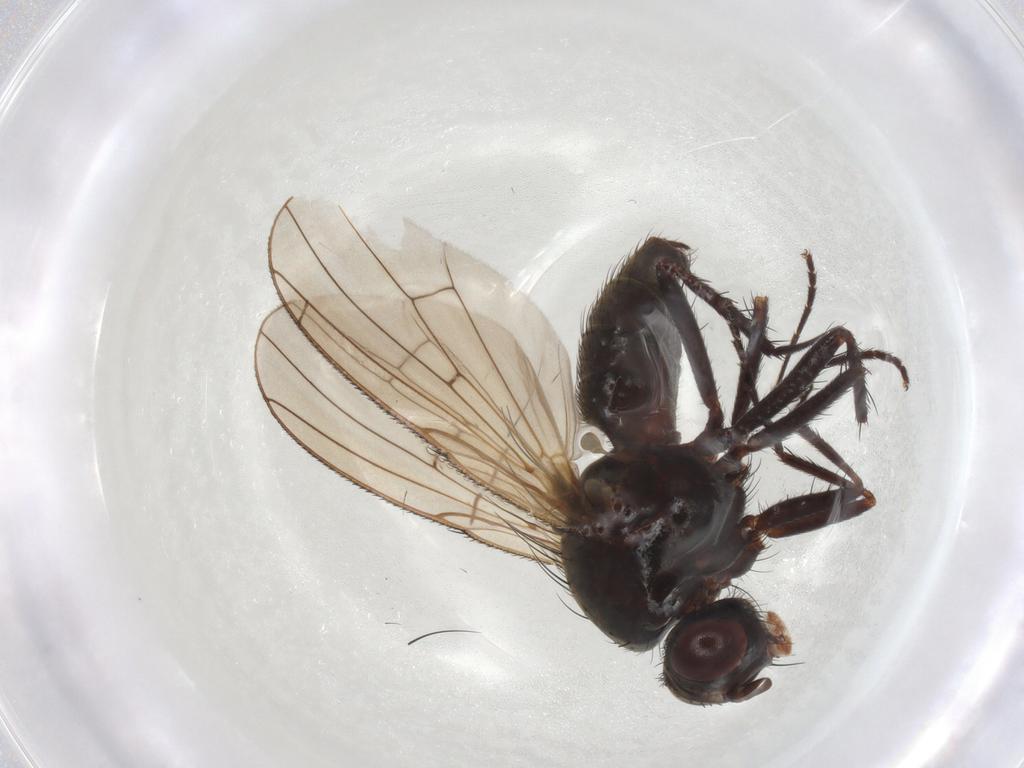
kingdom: Animalia
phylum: Arthropoda
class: Insecta
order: Diptera
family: Anthomyiidae
